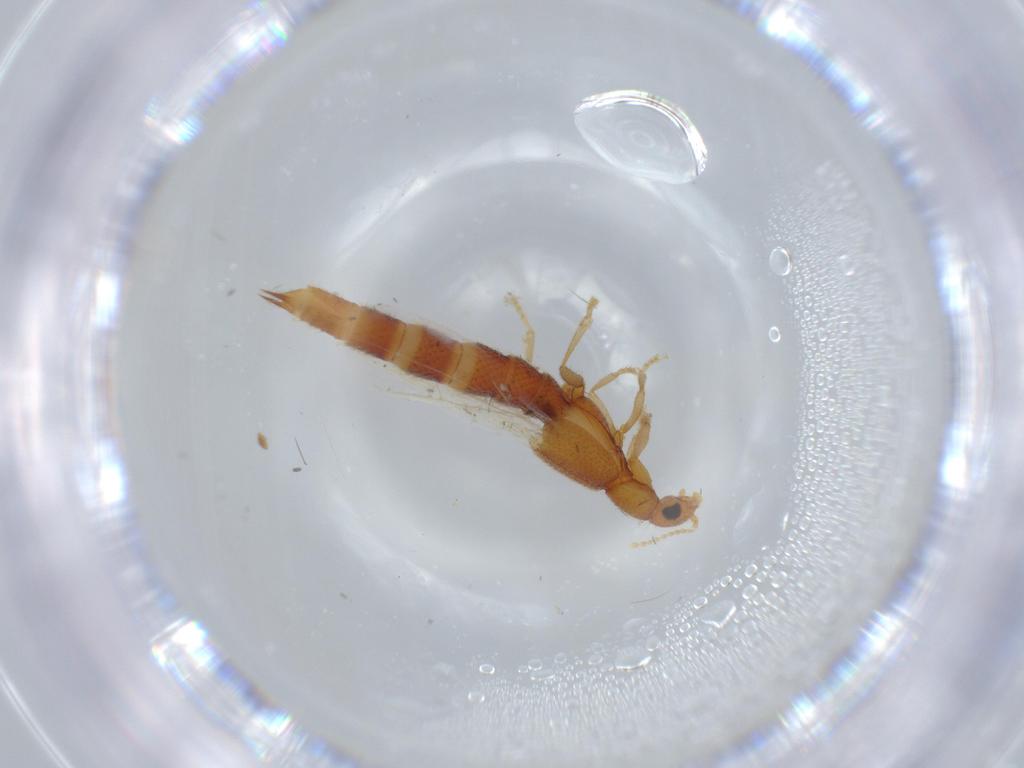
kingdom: Animalia
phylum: Arthropoda
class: Insecta
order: Coleoptera
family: Staphylinidae
